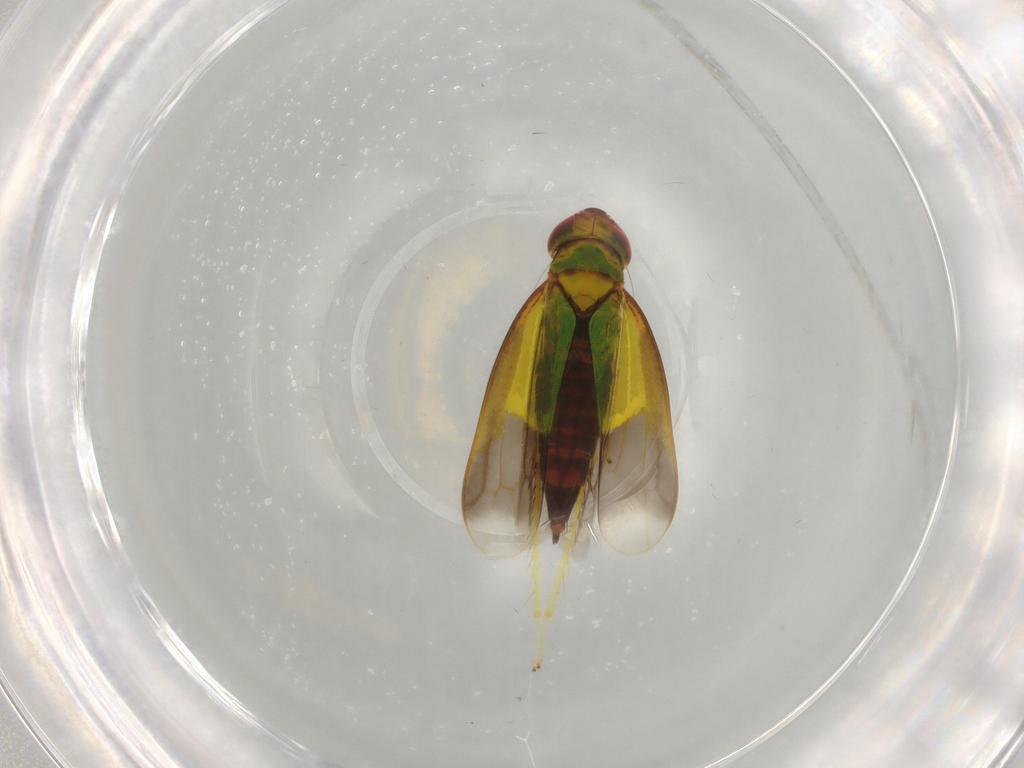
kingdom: Animalia
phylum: Arthropoda
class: Insecta
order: Hemiptera
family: Cicadellidae
